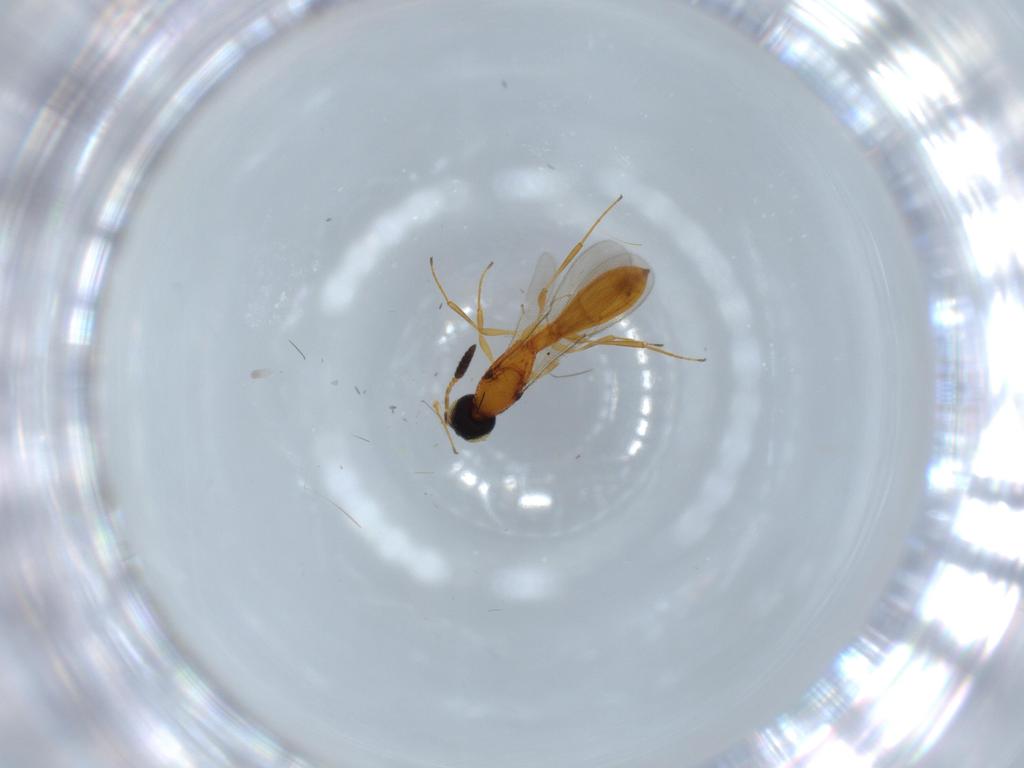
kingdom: Animalia
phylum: Arthropoda
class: Insecta
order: Hymenoptera
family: Scelionidae
